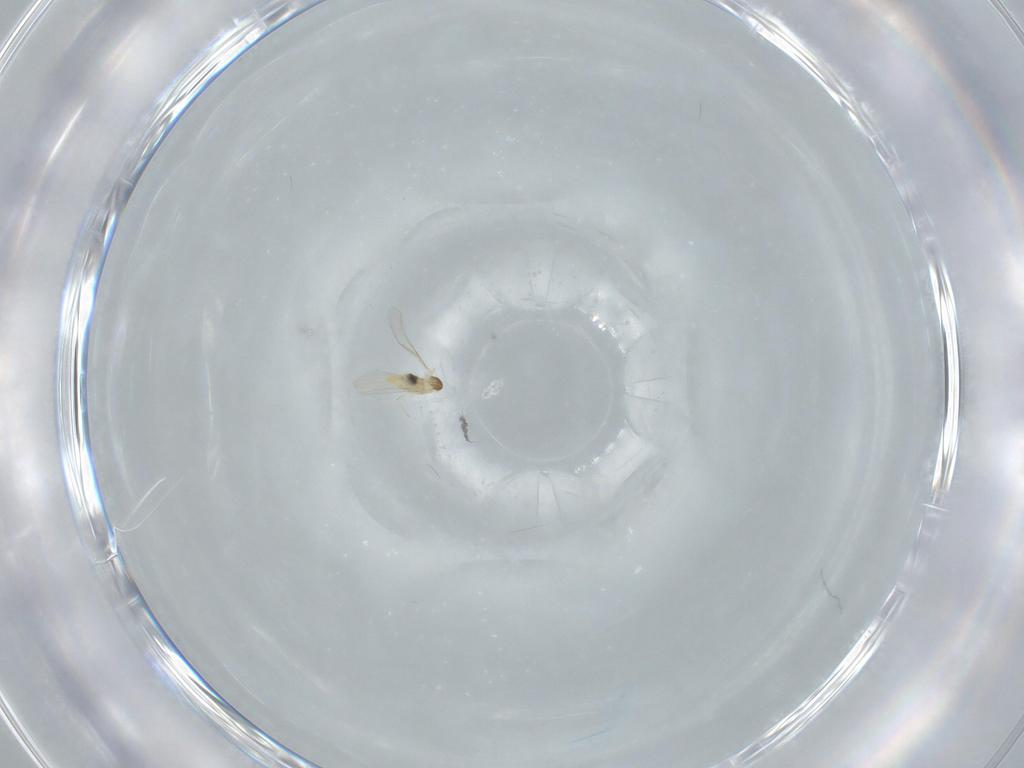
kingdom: Animalia
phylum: Arthropoda
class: Insecta
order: Diptera
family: Cecidomyiidae
